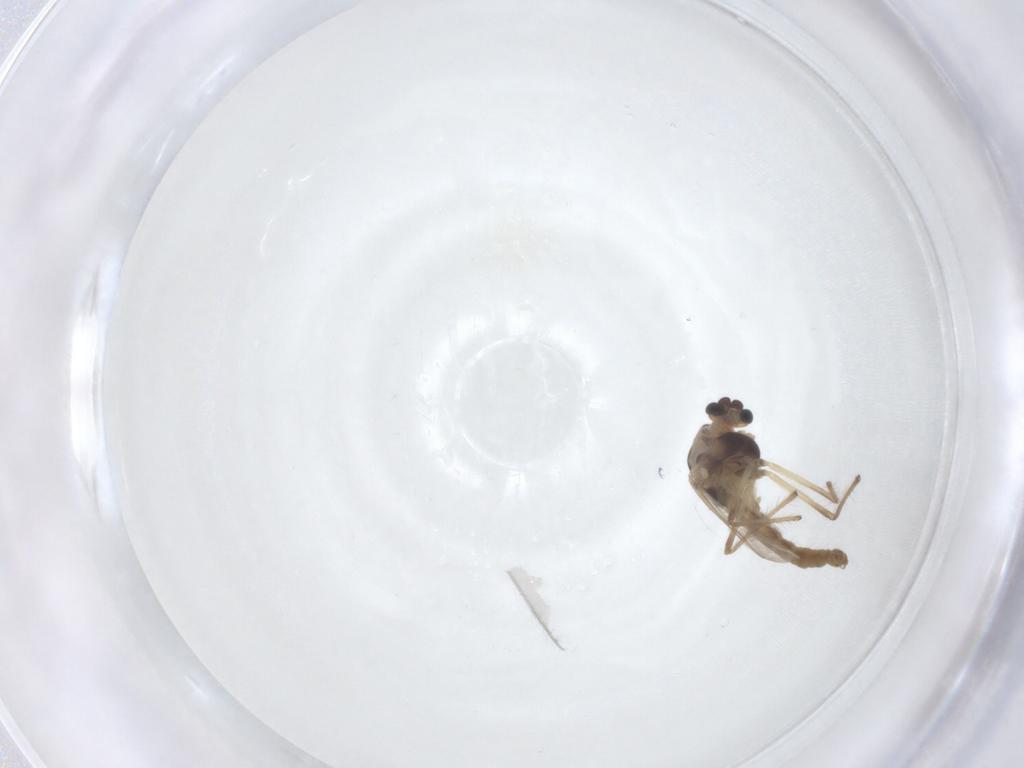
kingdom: Animalia
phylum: Arthropoda
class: Insecta
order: Diptera
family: Chironomidae
